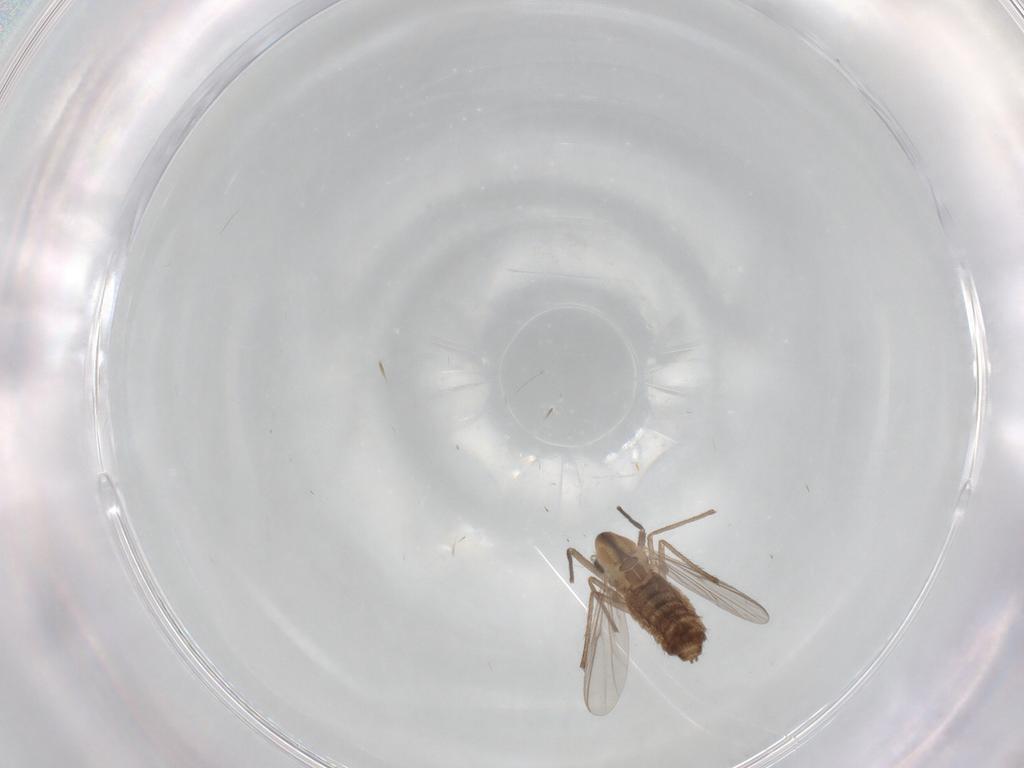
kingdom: Animalia
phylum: Arthropoda
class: Insecta
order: Diptera
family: Chironomidae
